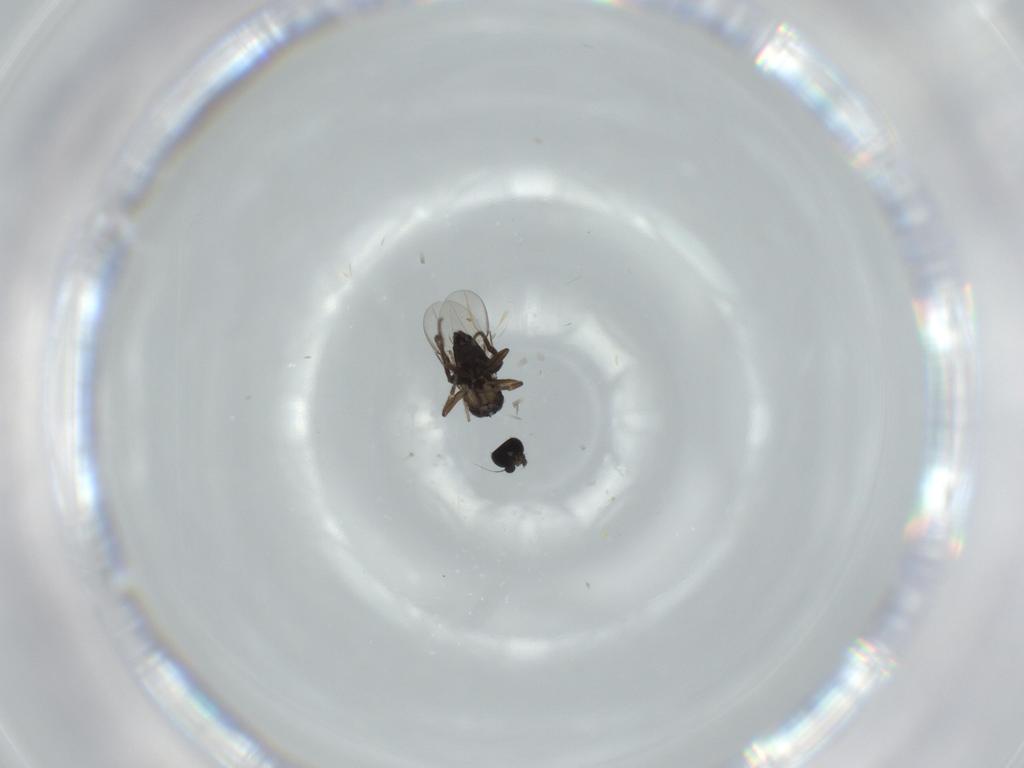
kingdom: Animalia
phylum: Arthropoda
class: Insecta
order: Diptera
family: Phoridae
